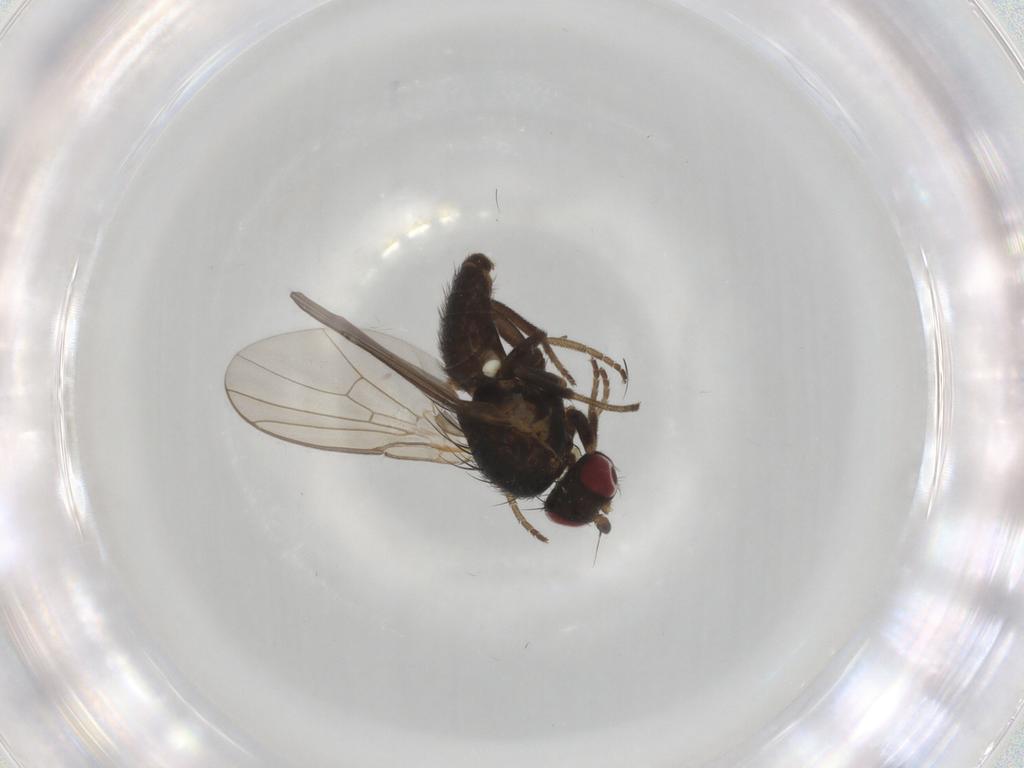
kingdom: Animalia
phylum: Arthropoda
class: Insecta
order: Diptera
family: Agromyzidae
